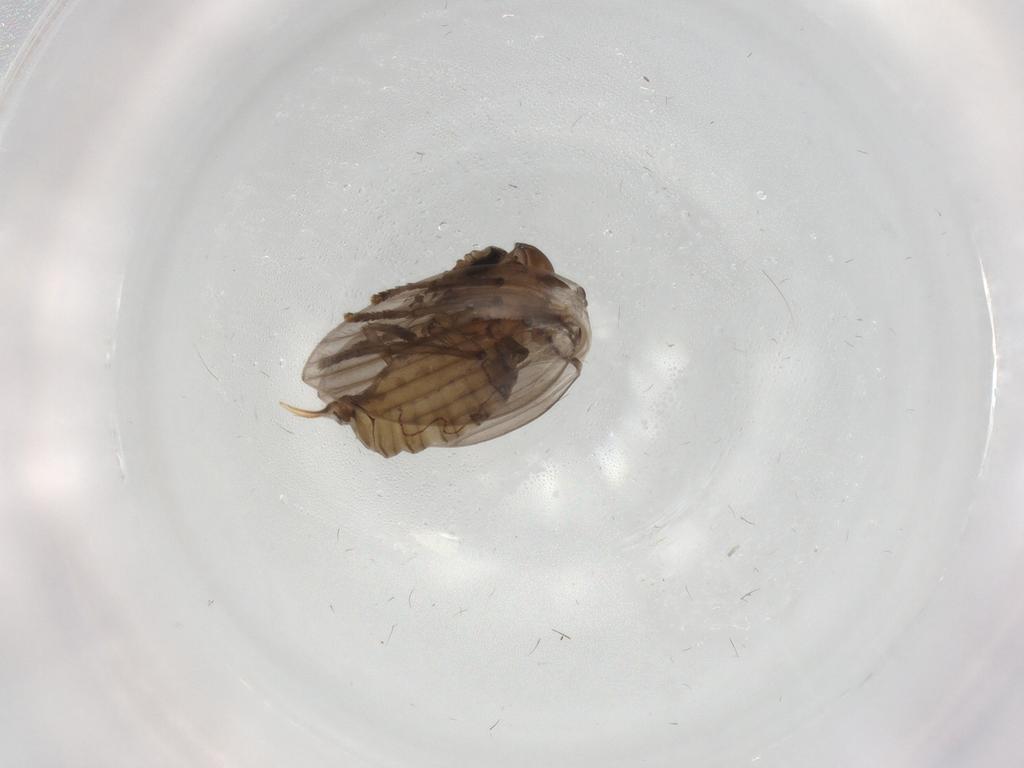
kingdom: Animalia
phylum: Arthropoda
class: Insecta
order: Diptera
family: Psychodidae
